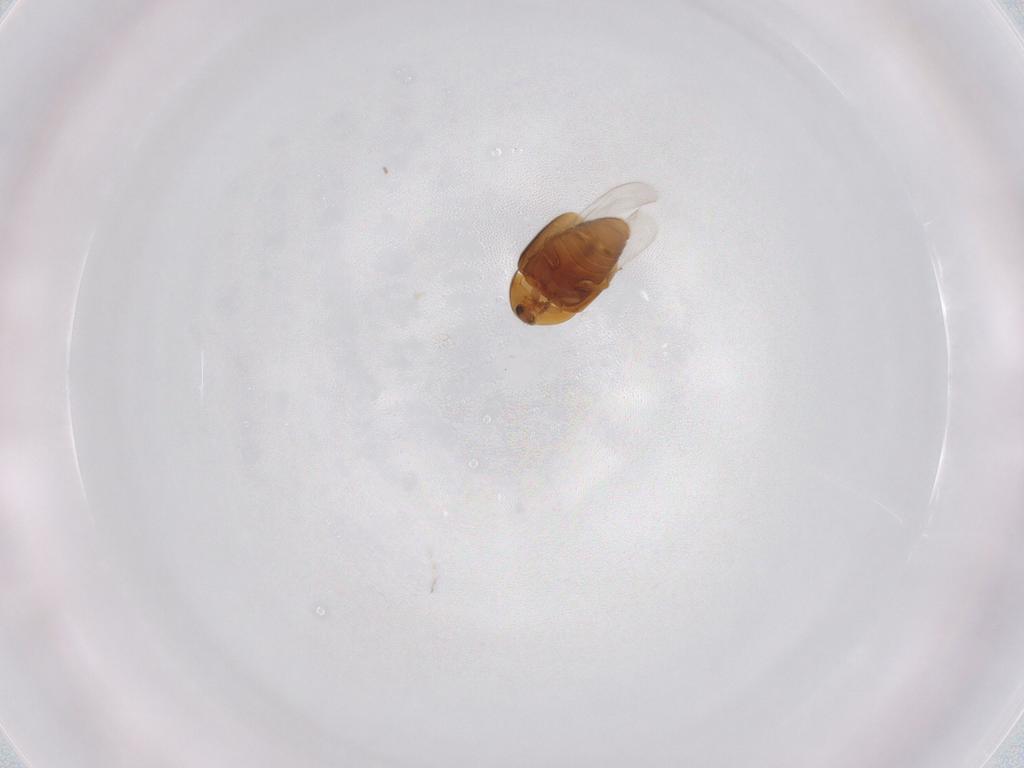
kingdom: Animalia
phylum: Arthropoda
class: Insecta
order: Coleoptera
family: Corylophidae
